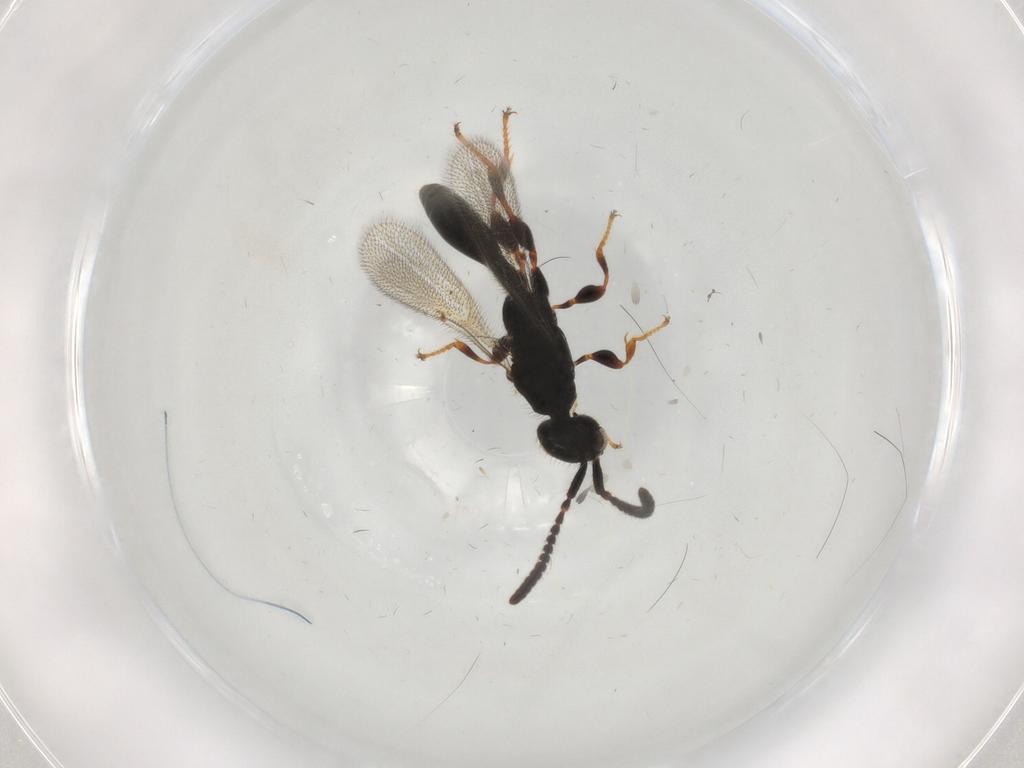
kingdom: Animalia
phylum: Arthropoda
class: Insecta
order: Hymenoptera
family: Diapriidae
